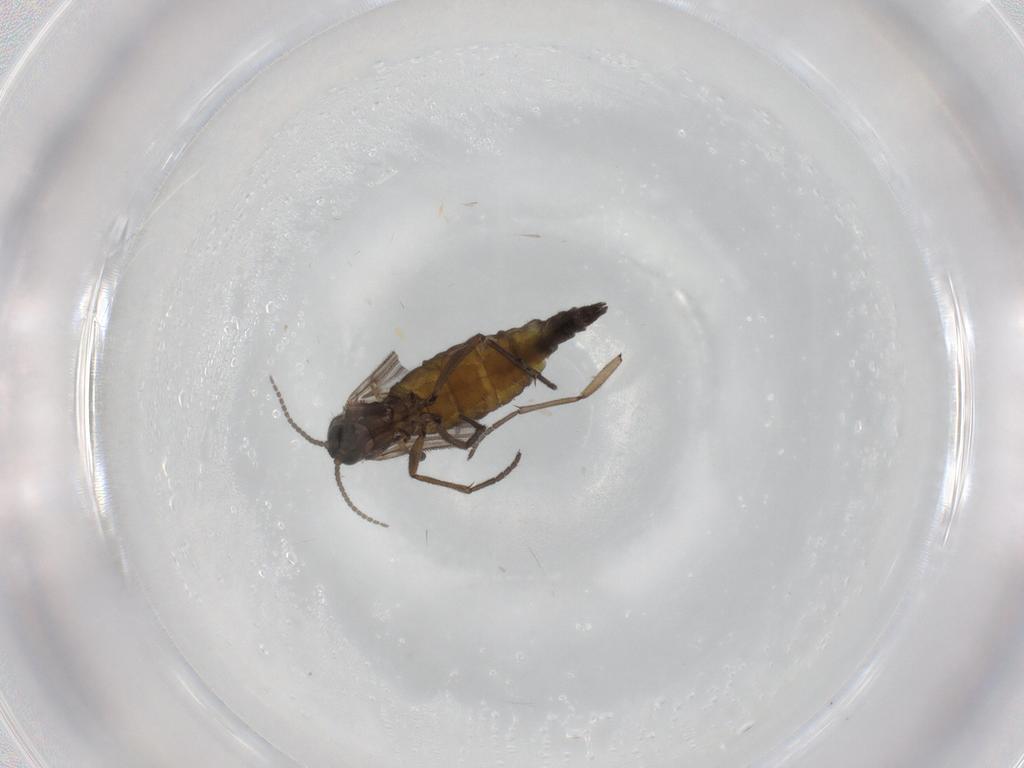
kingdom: Animalia
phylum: Arthropoda
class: Insecta
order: Diptera
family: Sciaridae
